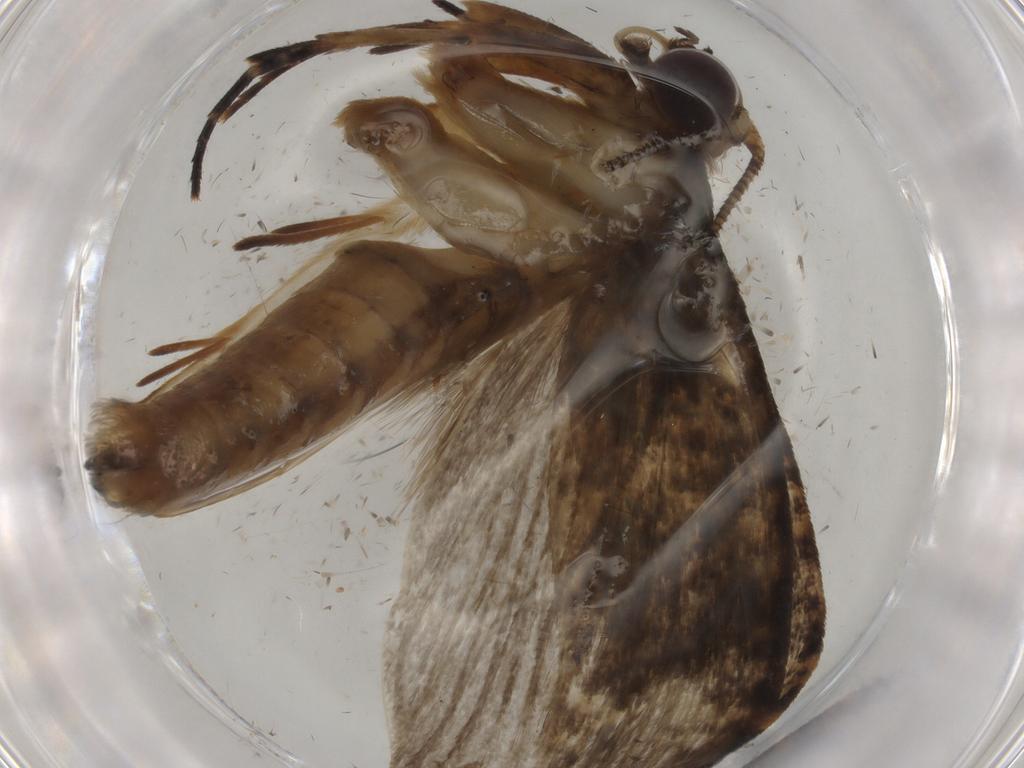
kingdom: Animalia
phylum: Arthropoda
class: Insecta
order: Lepidoptera
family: Tineidae
